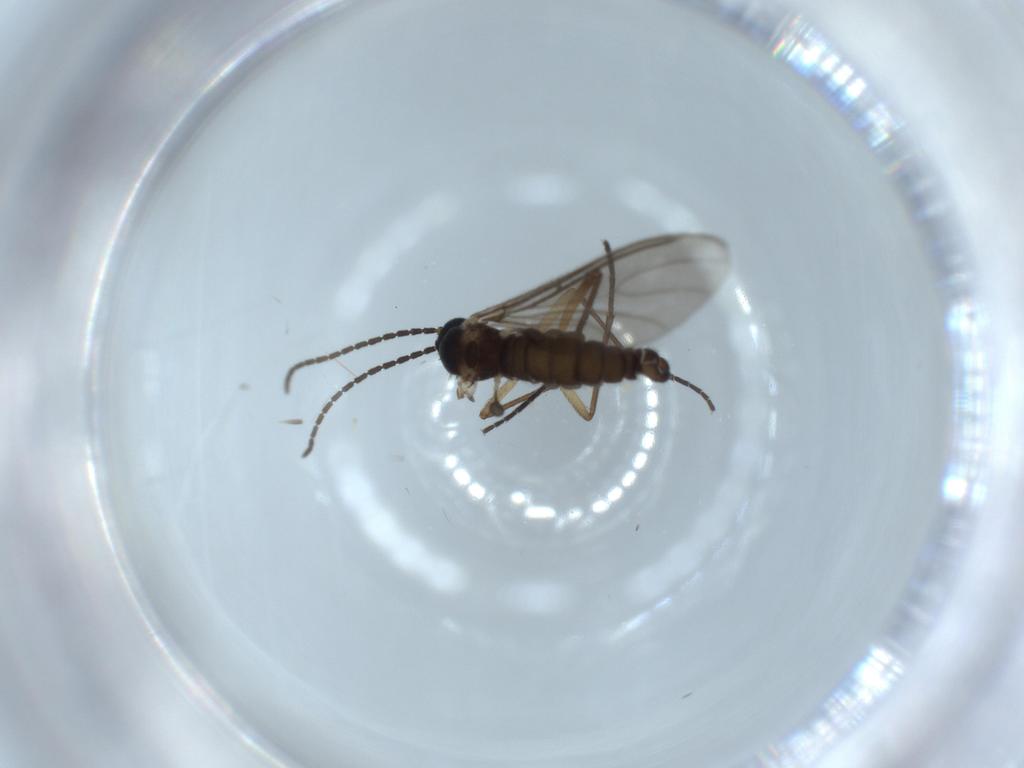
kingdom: Animalia
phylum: Arthropoda
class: Insecta
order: Diptera
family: Sciaridae
